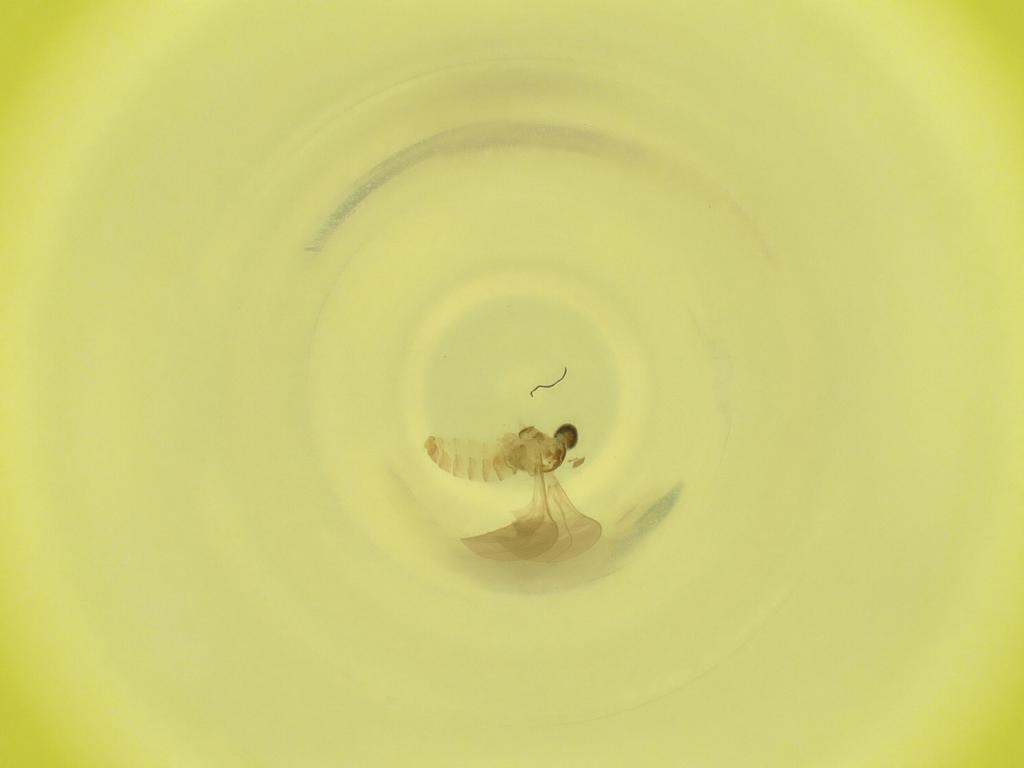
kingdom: Animalia
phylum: Arthropoda
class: Insecta
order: Diptera
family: Cecidomyiidae
